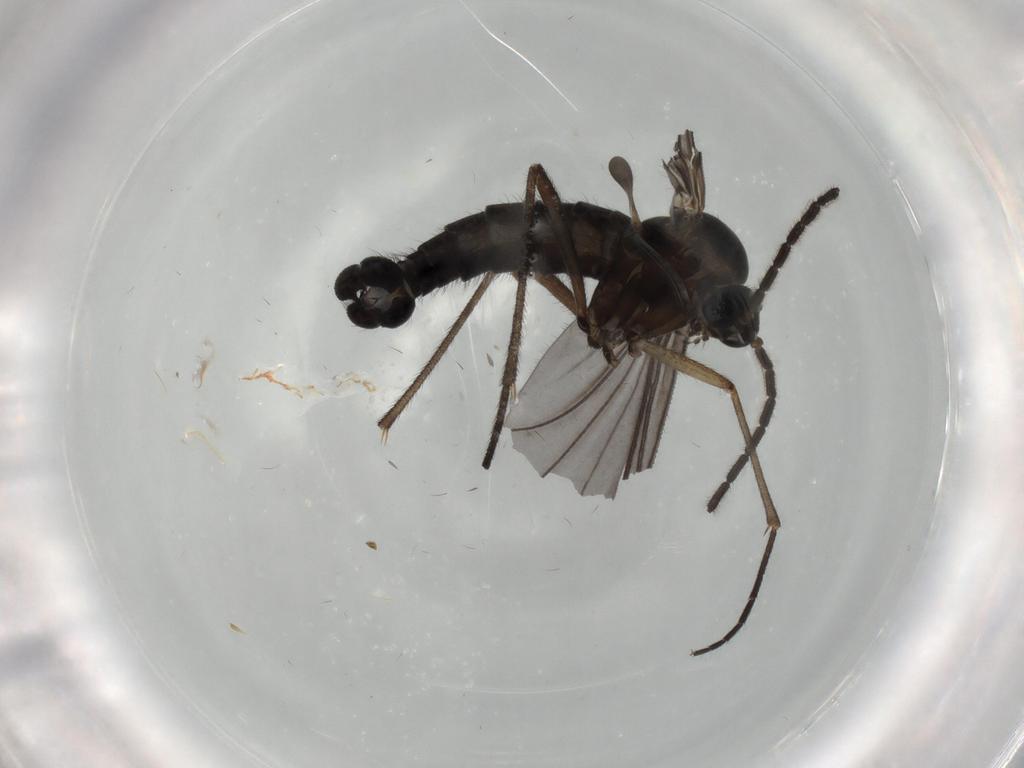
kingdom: Animalia
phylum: Arthropoda
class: Insecta
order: Diptera
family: Sciaridae
